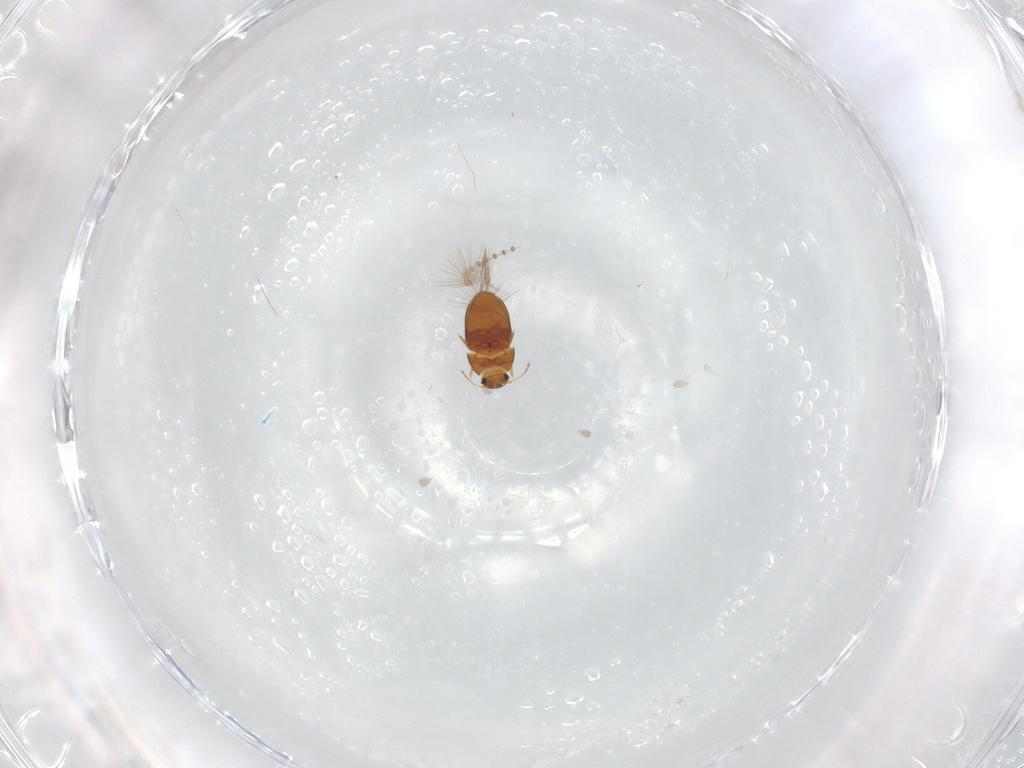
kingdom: Animalia
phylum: Arthropoda
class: Insecta
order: Coleoptera
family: Ptiliidae
